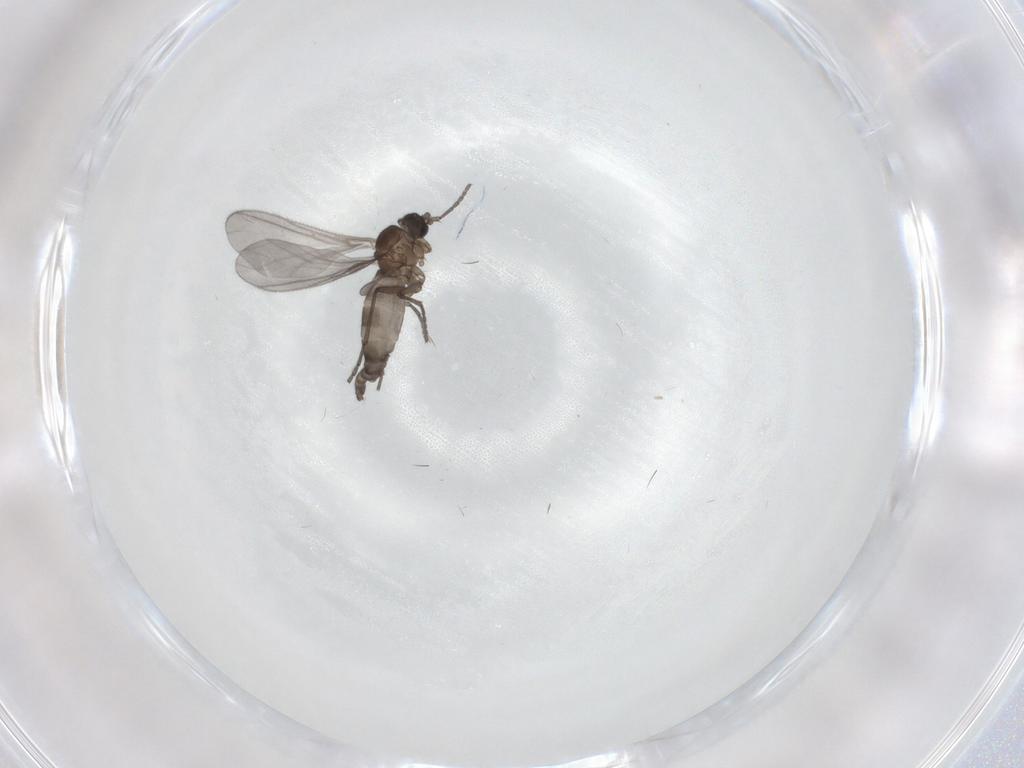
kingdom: Animalia
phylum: Arthropoda
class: Insecta
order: Diptera
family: Sciaridae
